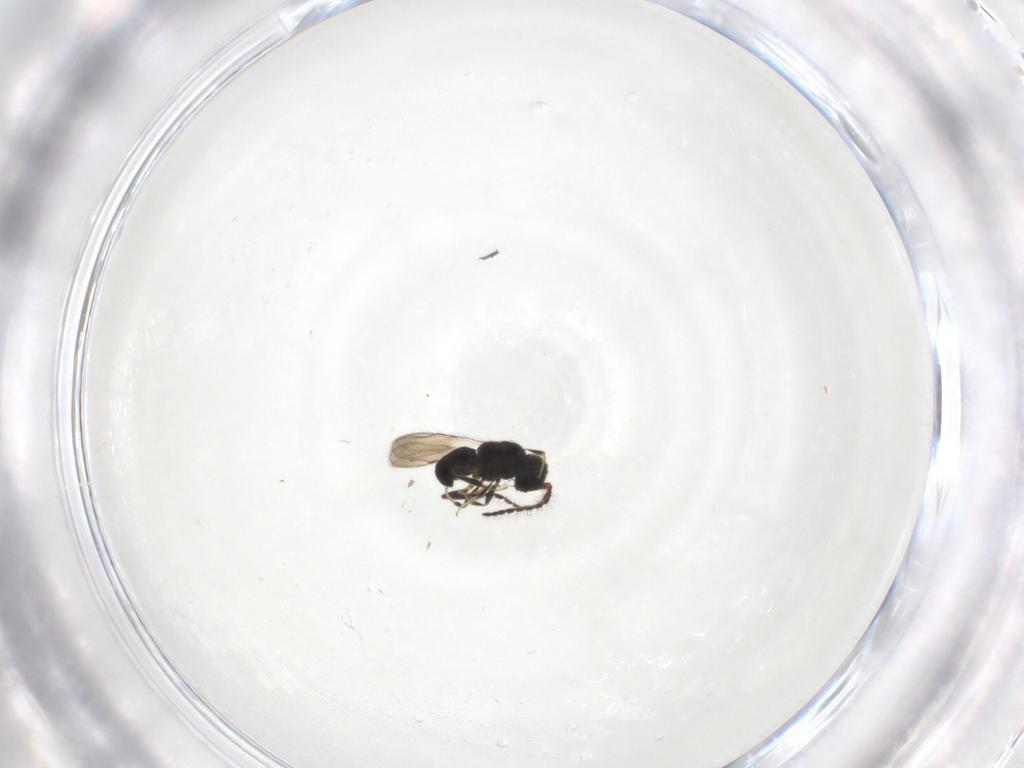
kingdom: Animalia
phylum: Arthropoda
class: Insecta
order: Hymenoptera
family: Ceraphronidae
